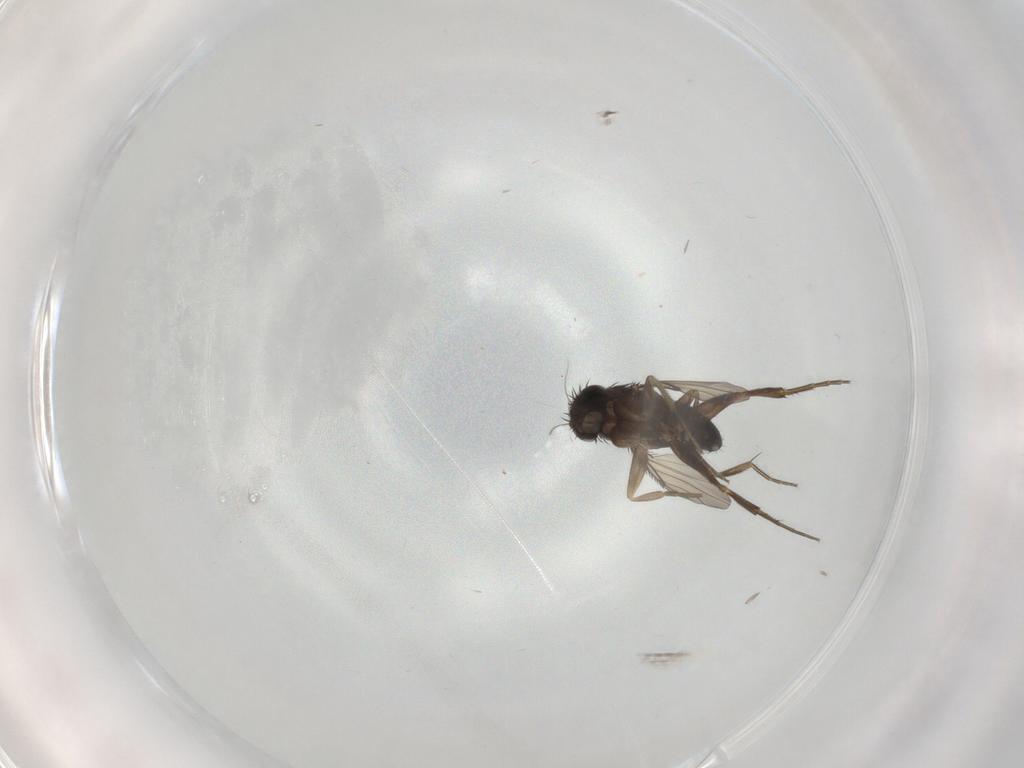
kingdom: Animalia
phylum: Arthropoda
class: Insecta
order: Diptera
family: Phoridae
